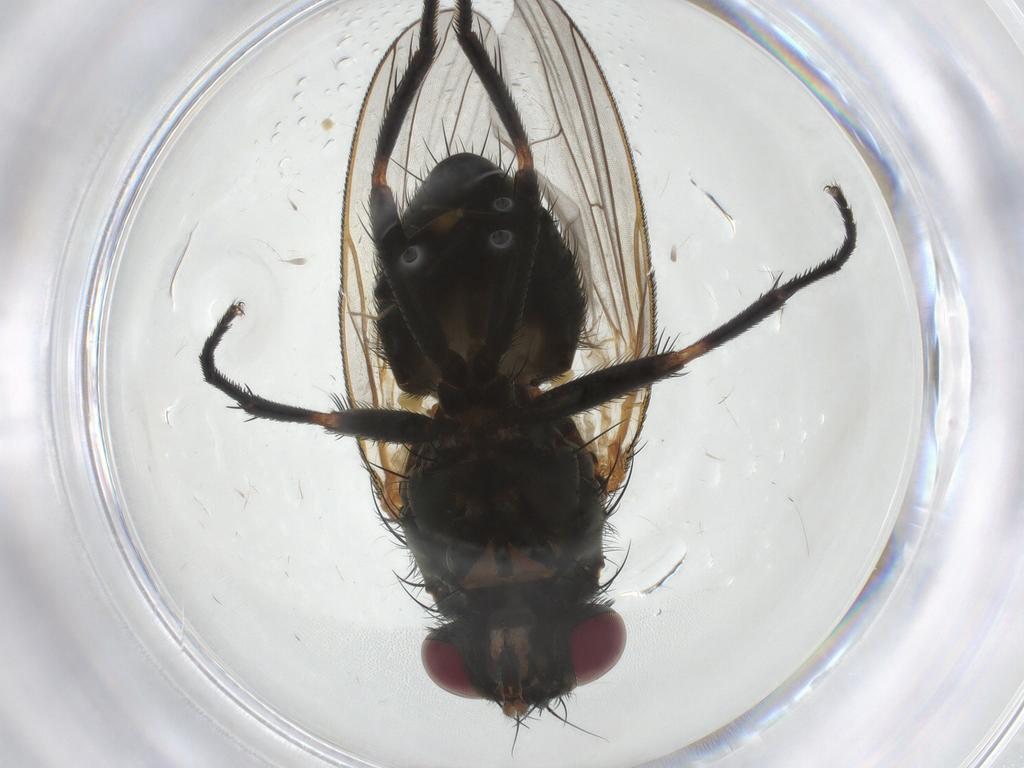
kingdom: Animalia
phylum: Arthropoda
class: Insecta
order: Diptera
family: Fannia
